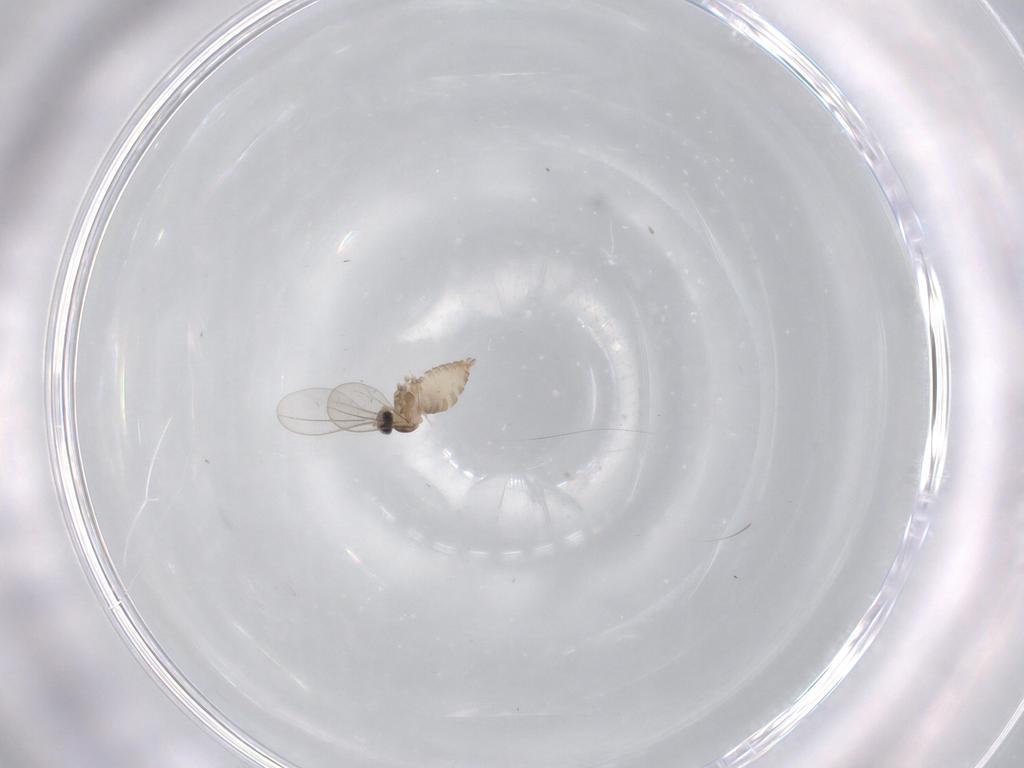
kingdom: Animalia
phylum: Arthropoda
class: Insecta
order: Diptera
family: Cecidomyiidae
